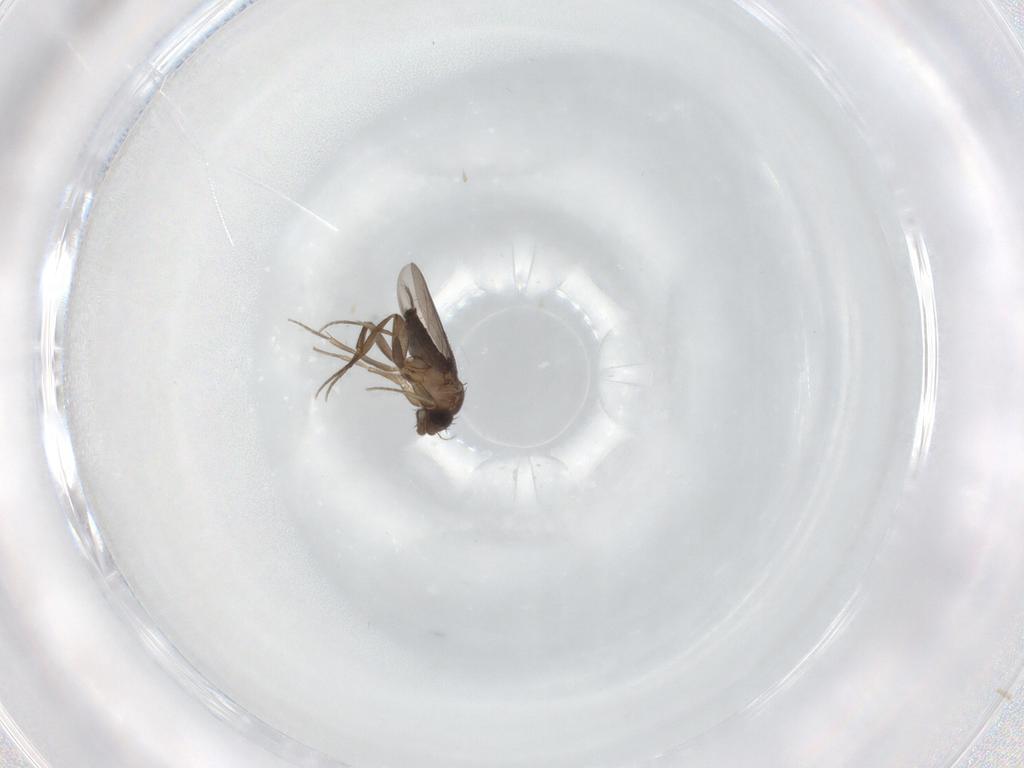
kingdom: Animalia
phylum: Arthropoda
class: Insecta
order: Diptera
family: Phoridae
